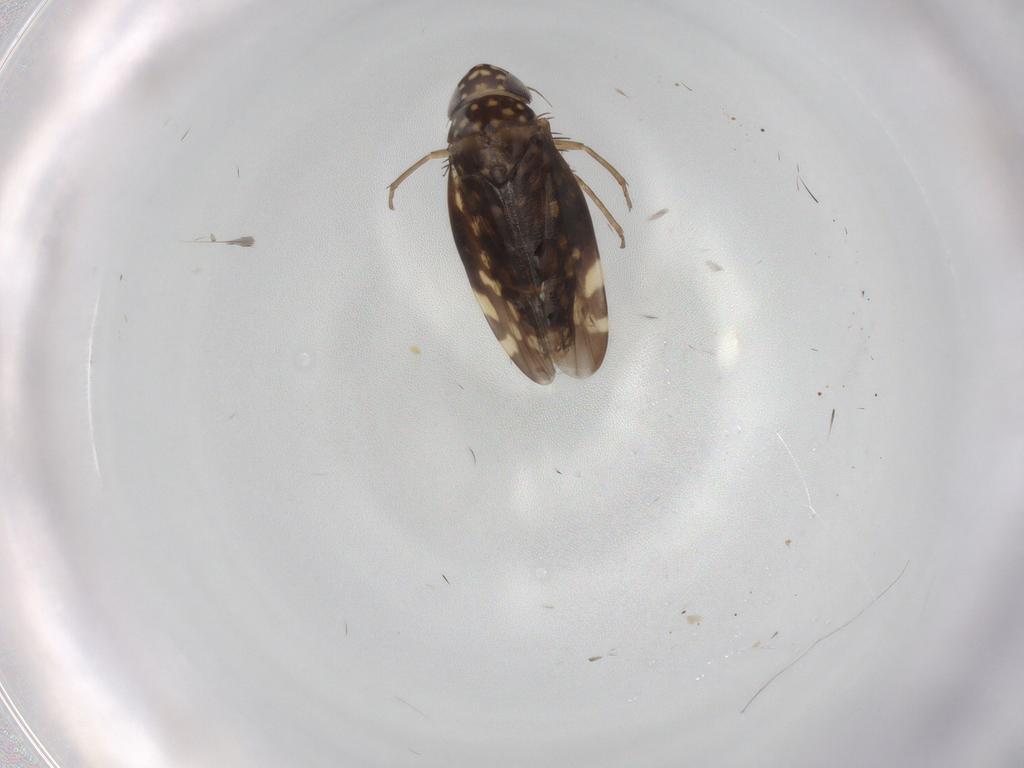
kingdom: Animalia
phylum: Arthropoda
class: Insecta
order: Hemiptera
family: Cicadellidae
